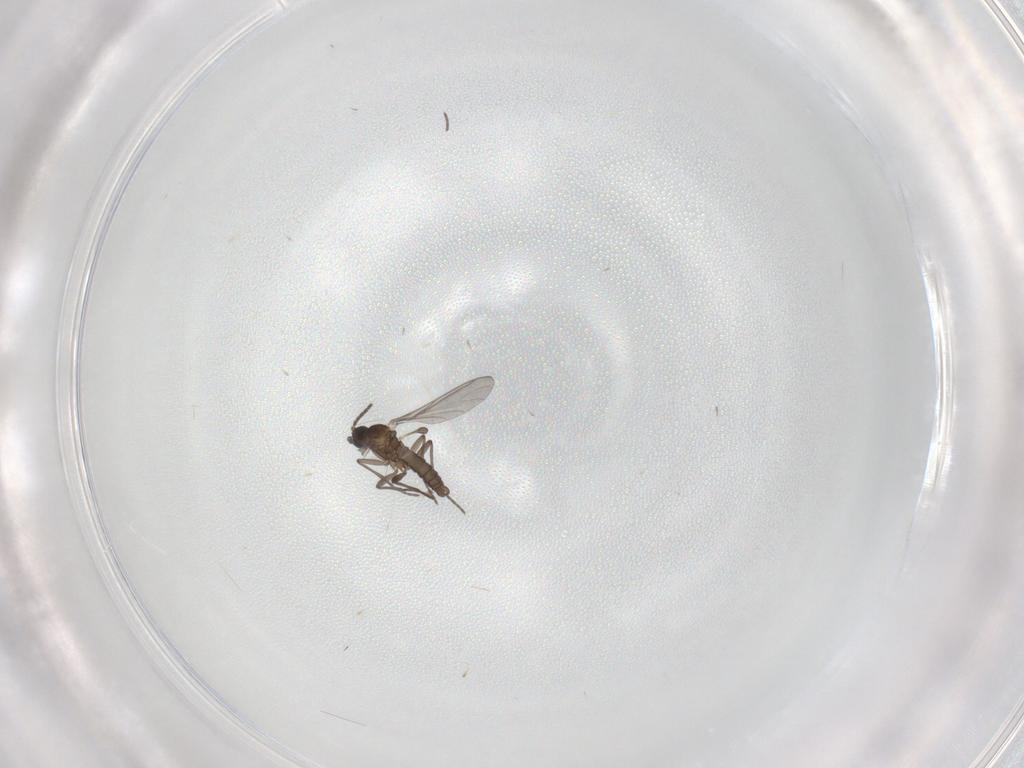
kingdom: Animalia
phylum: Arthropoda
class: Insecta
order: Diptera
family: Sciaridae
